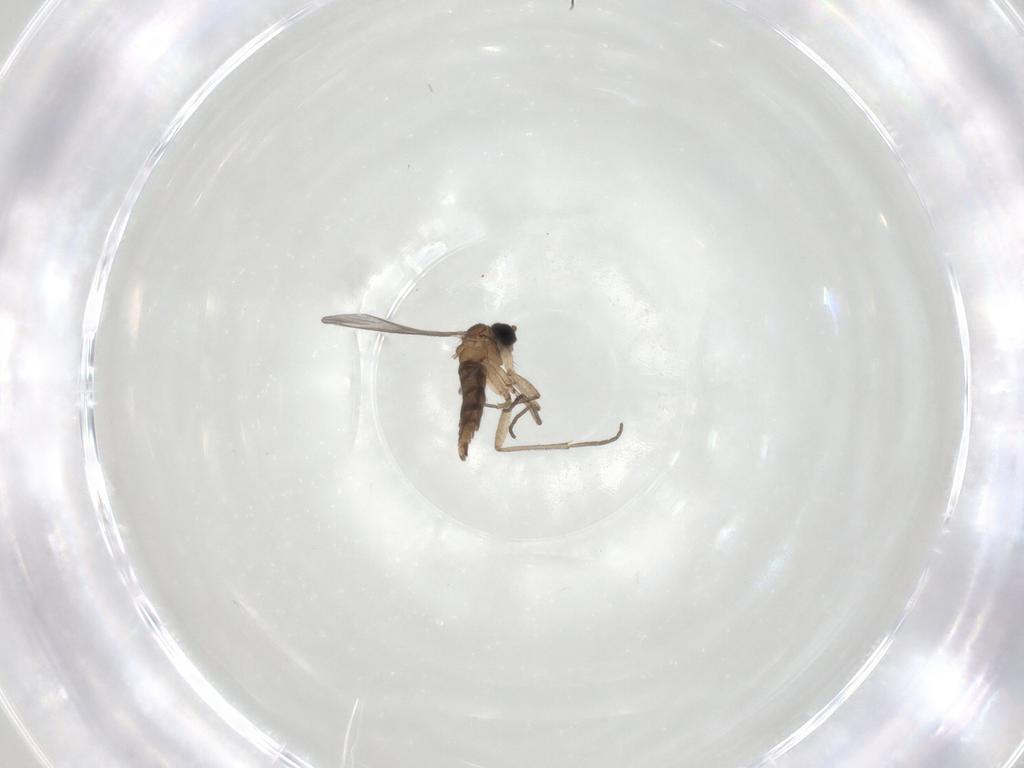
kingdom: Animalia
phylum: Arthropoda
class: Insecta
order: Diptera
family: Sciaridae
